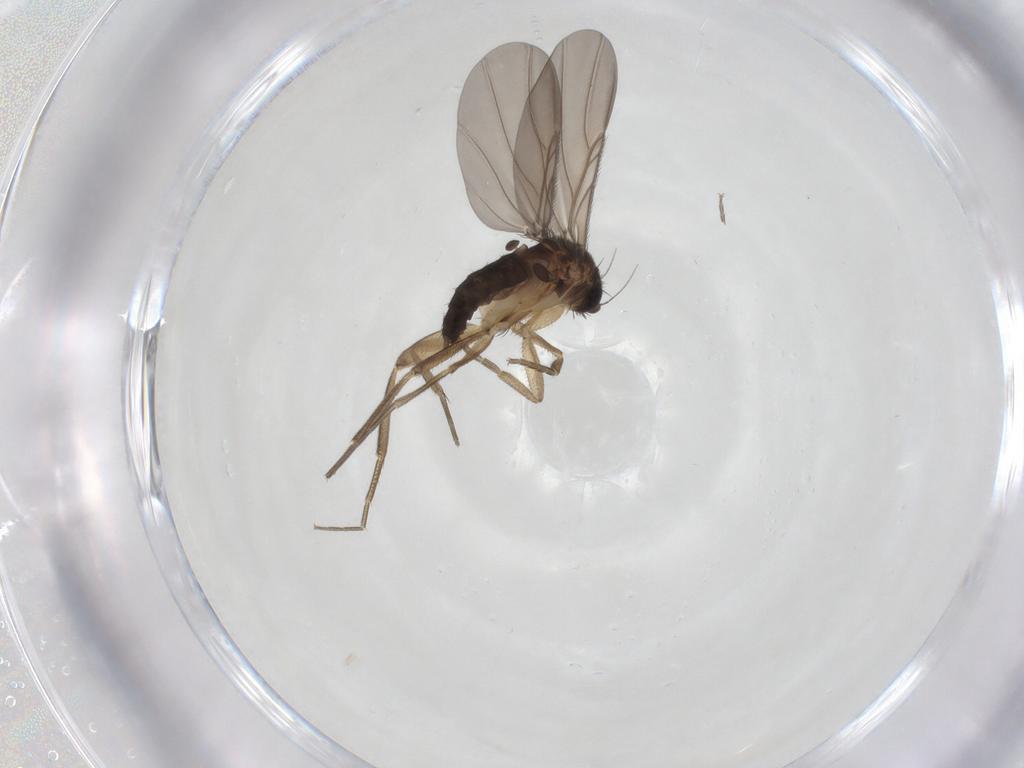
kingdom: Animalia
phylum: Arthropoda
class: Insecta
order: Diptera
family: Phoridae
